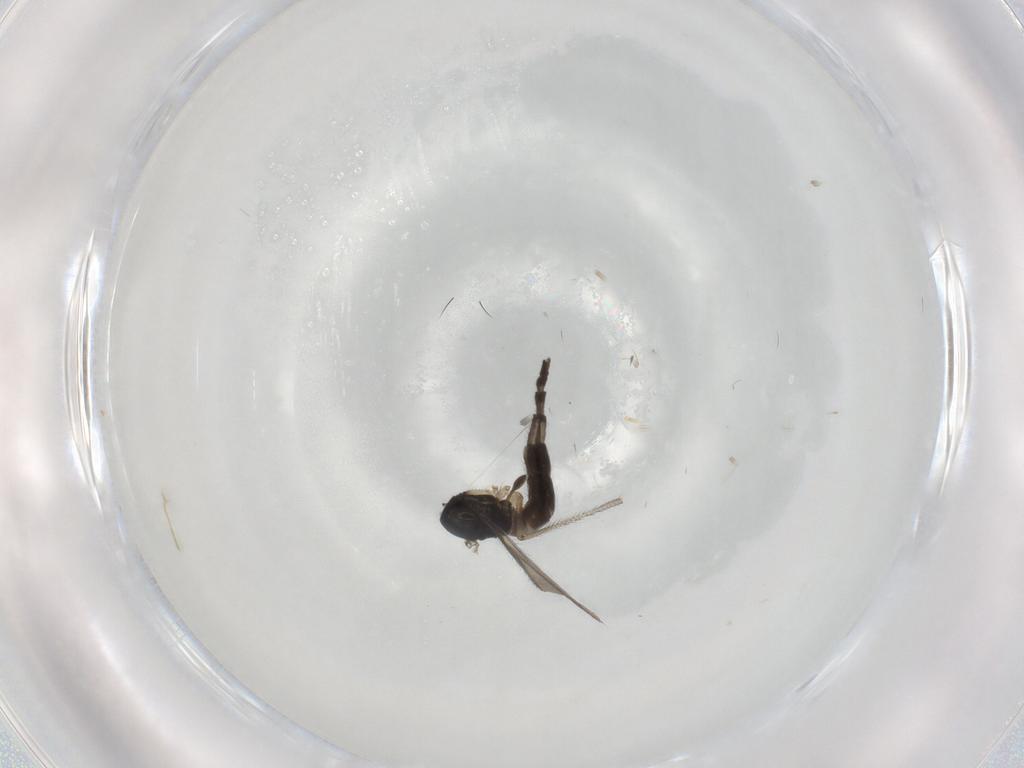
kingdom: Animalia
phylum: Arthropoda
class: Insecta
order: Diptera
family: Sciaridae
